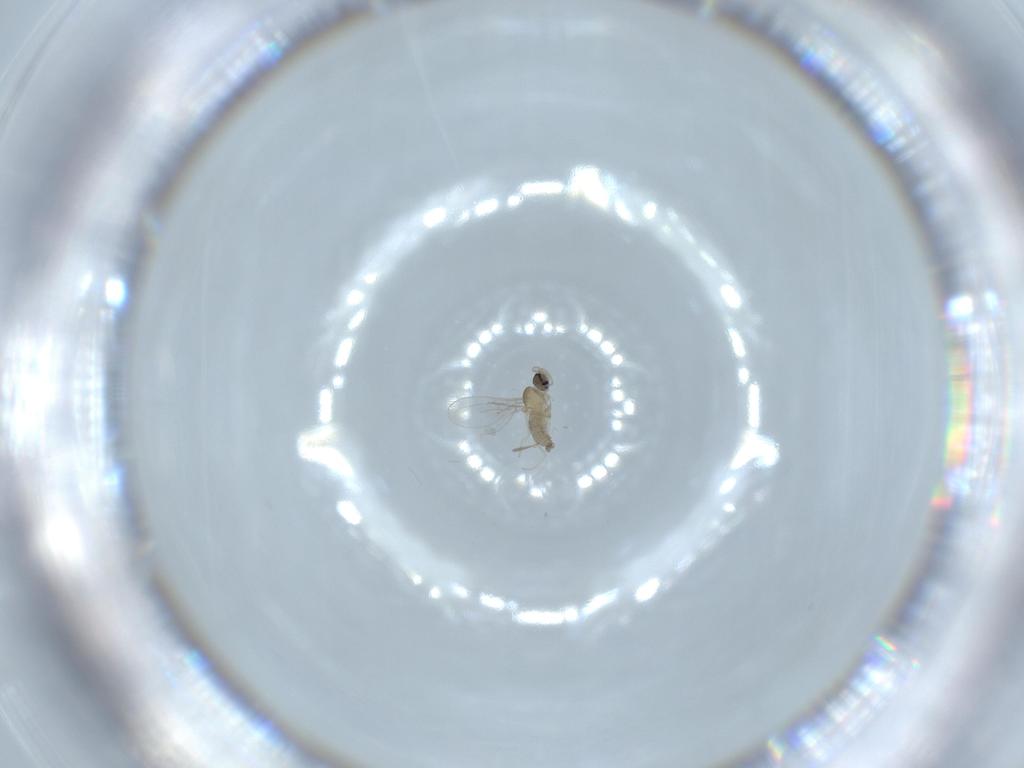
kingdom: Animalia
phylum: Arthropoda
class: Insecta
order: Diptera
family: Cecidomyiidae
